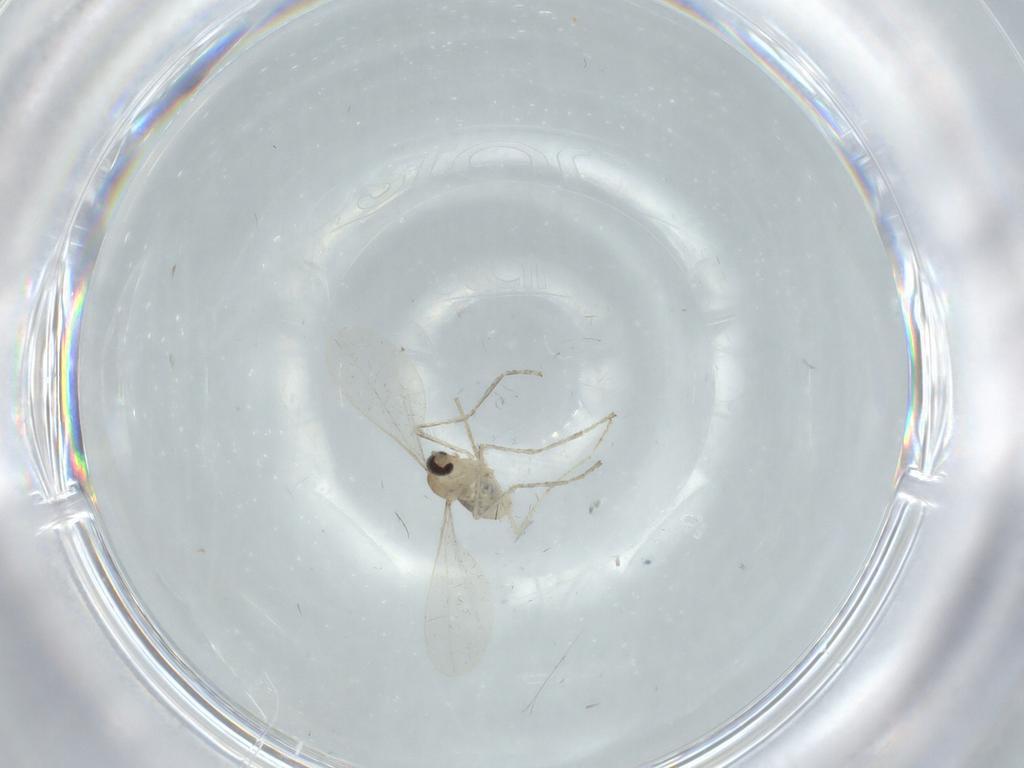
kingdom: Animalia
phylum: Arthropoda
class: Insecta
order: Diptera
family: Cecidomyiidae
